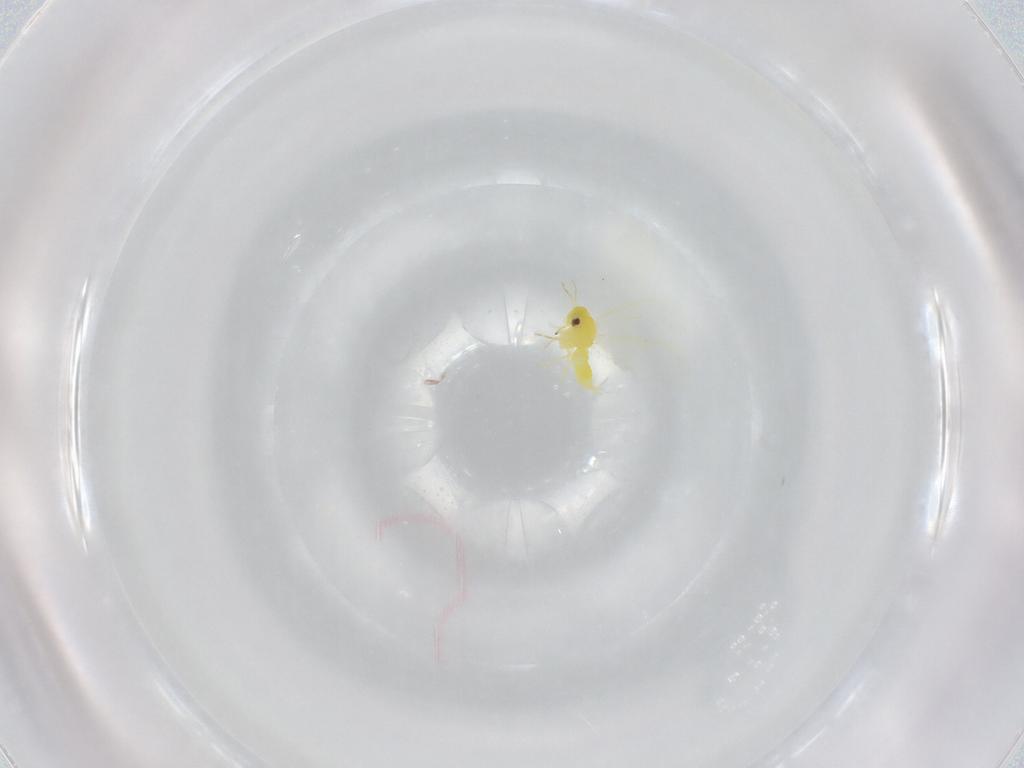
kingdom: Animalia
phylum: Arthropoda
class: Insecta
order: Hemiptera
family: Aleyrodidae
